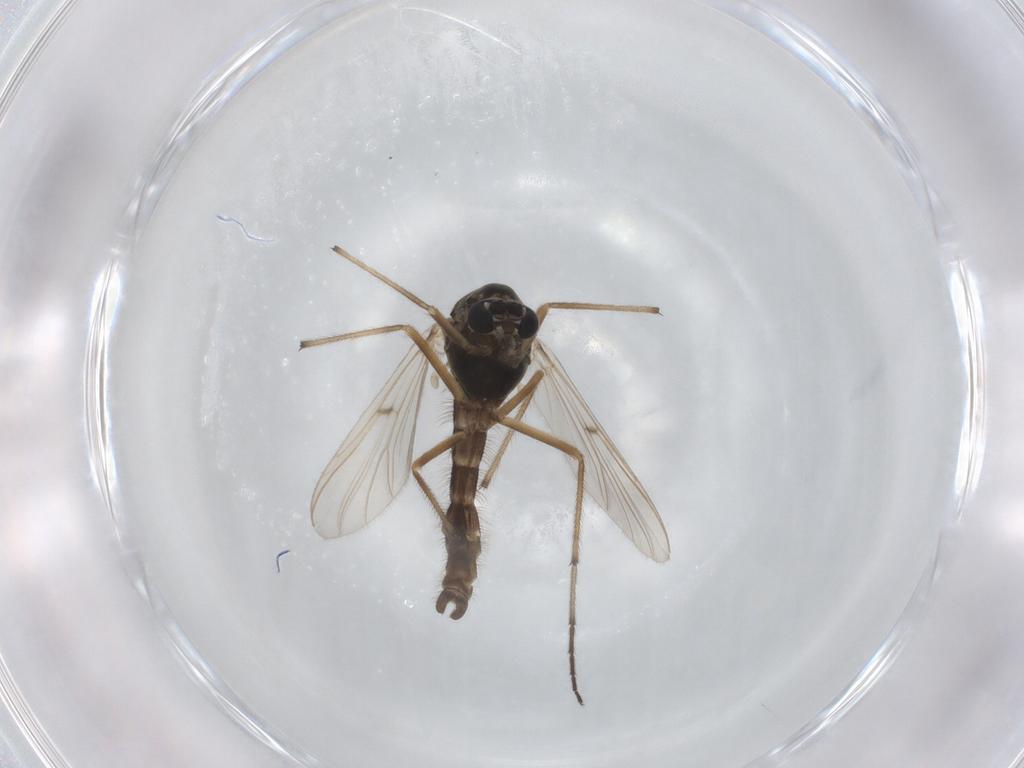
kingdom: Animalia
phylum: Arthropoda
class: Insecta
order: Diptera
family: Chironomidae
